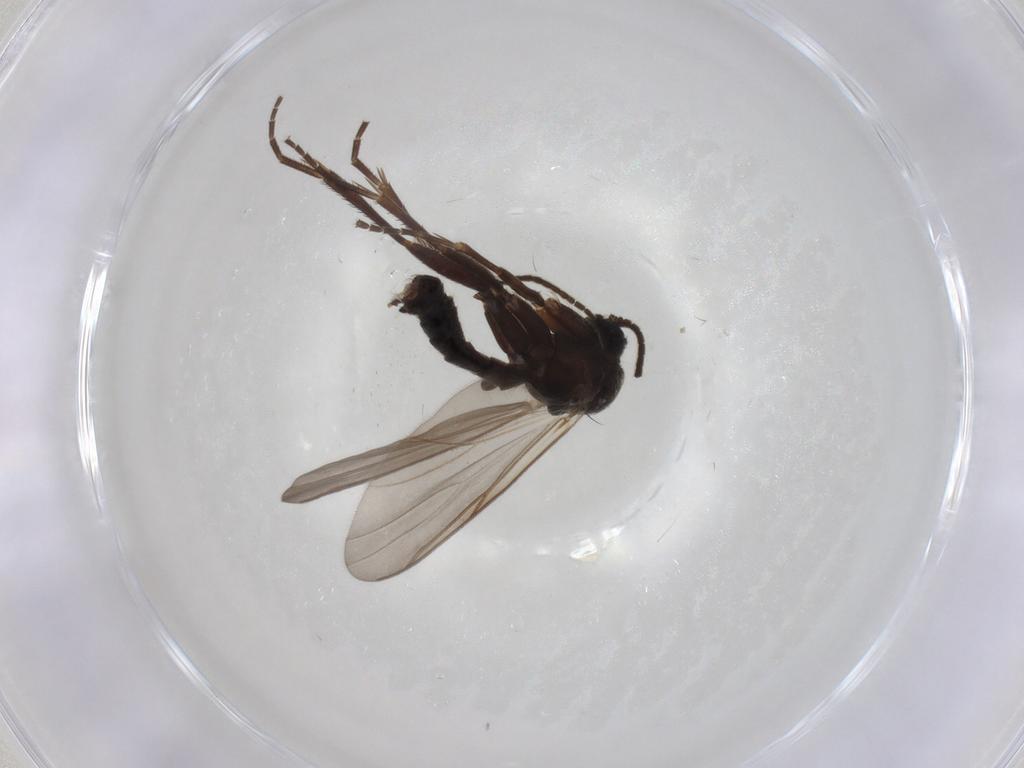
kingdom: Animalia
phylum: Arthropoda
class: Insecta
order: Diptera
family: Mycetophilidae
